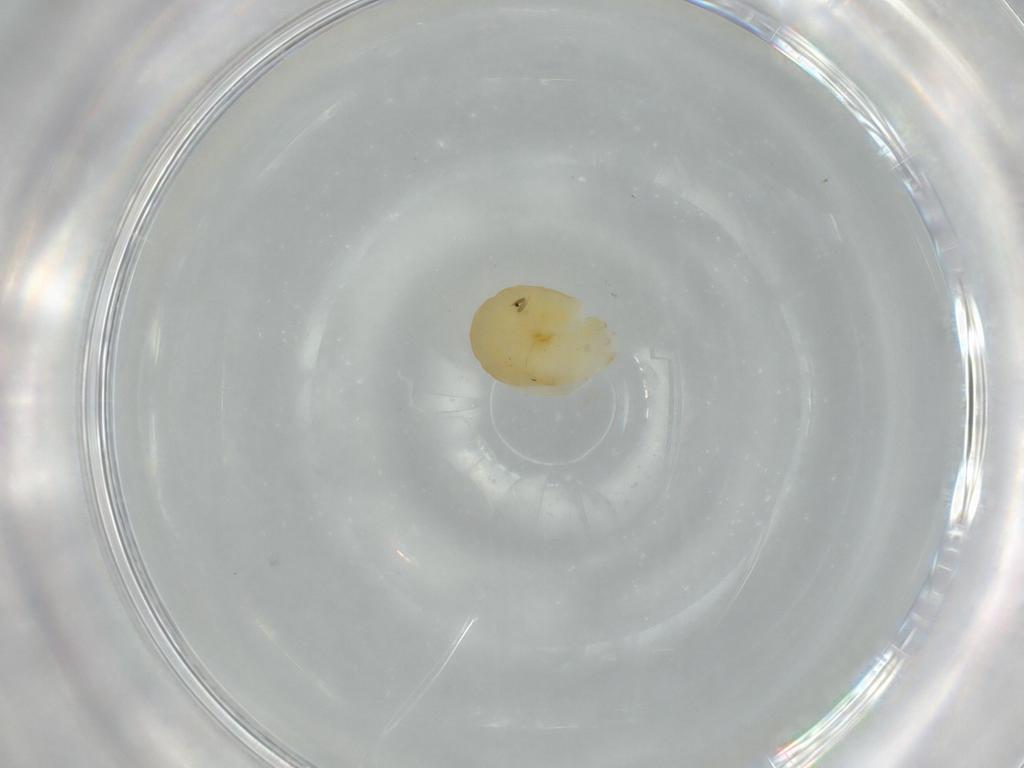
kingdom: Animalia
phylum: Arthropoda
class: Insecta
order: Hymenoptera
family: Dryinidae
